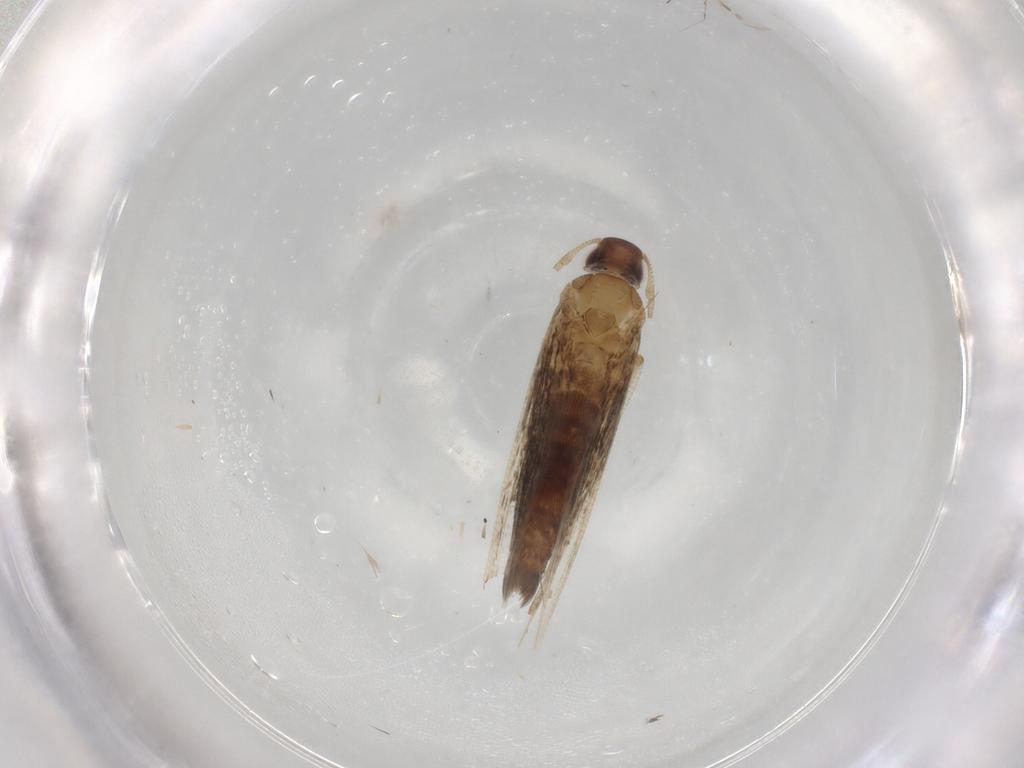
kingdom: Animalia
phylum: Arthropoda
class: Insecta
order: Lepidoptera
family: Cosmopterigidae
